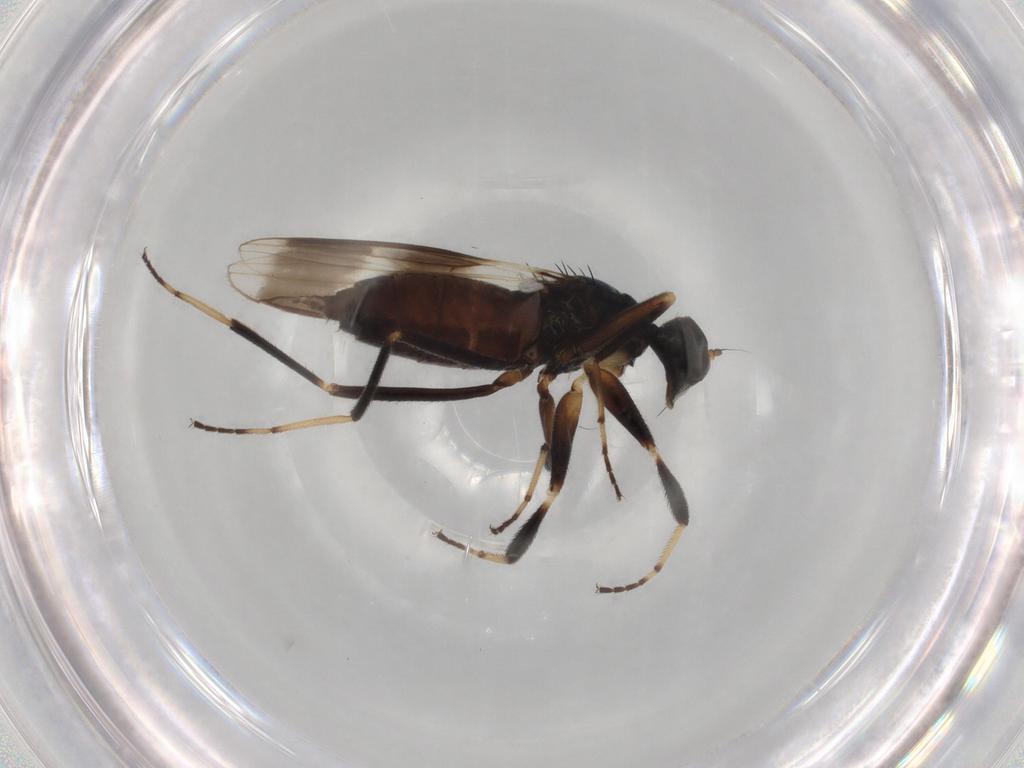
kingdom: Animalia
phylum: Arthropoda
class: Insecta
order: Diptera
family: Hybotidae
